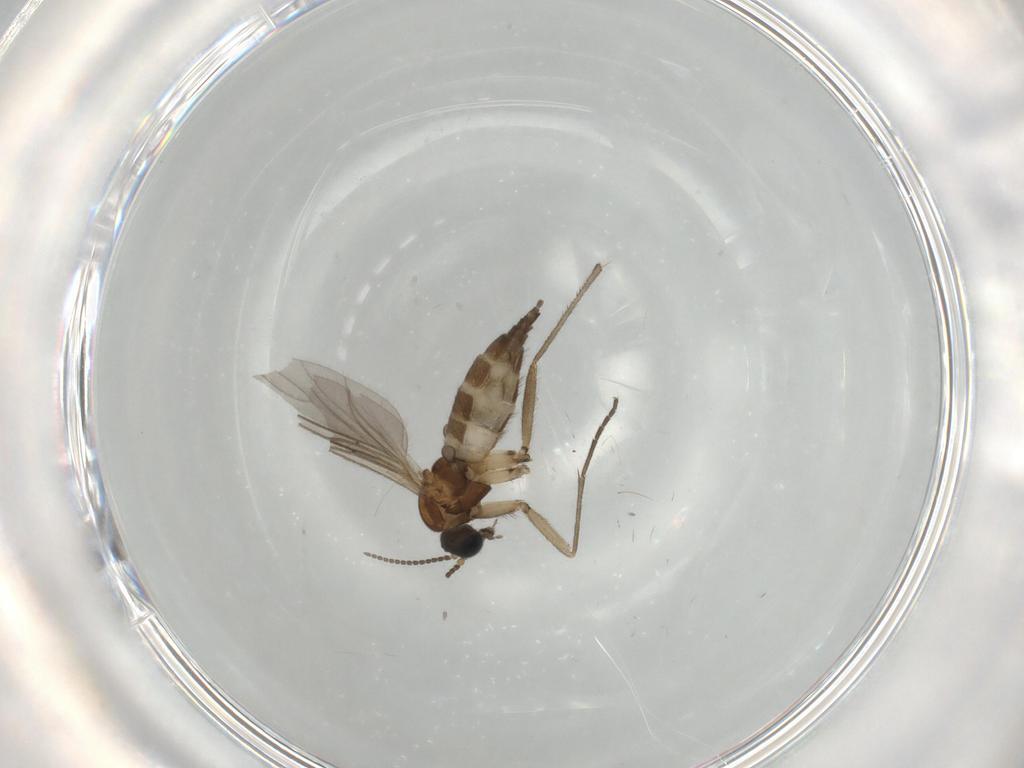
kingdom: Animalia
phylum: Arthropoda
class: Insecta
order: Diptera
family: Sciaridae
